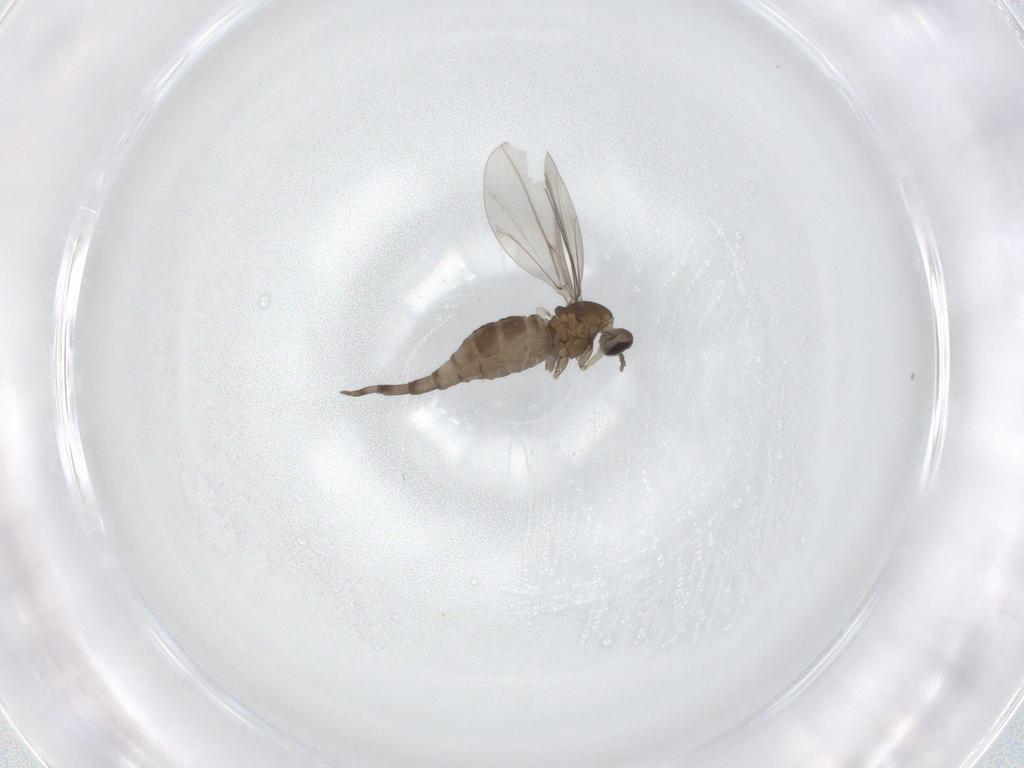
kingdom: Animalia
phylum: Arthropoda
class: Insecta
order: Diptera
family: Cecidomyiidae
